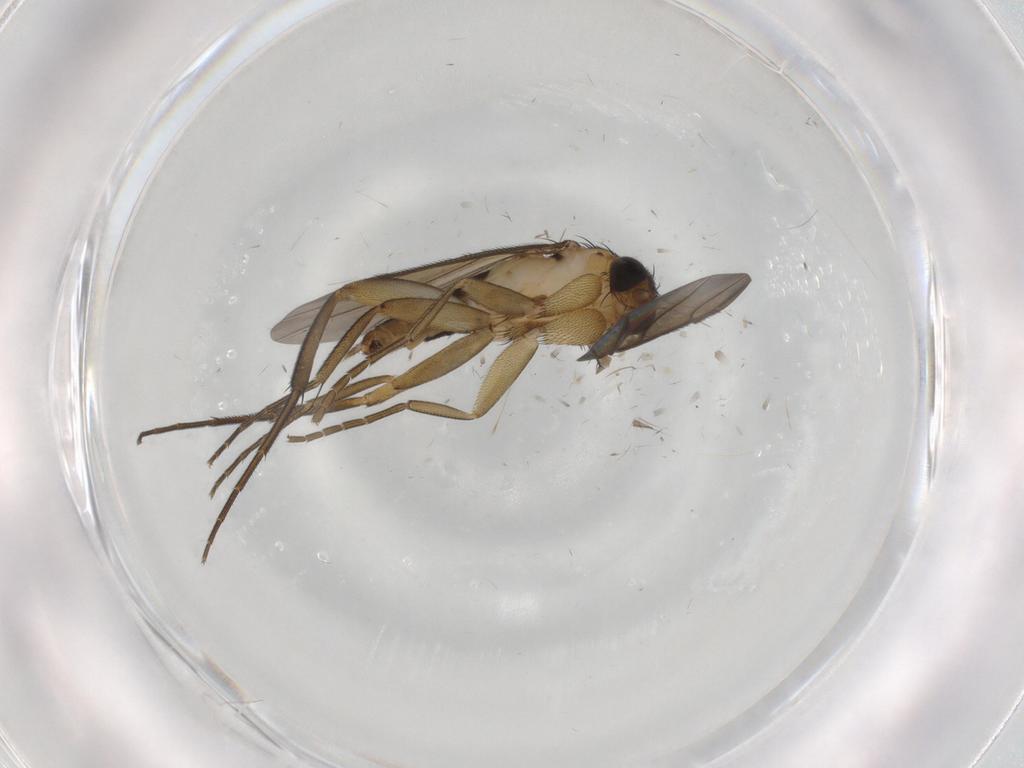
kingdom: Animalia
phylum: Arthropoda
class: Insecta
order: Diptera
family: Phoridae
